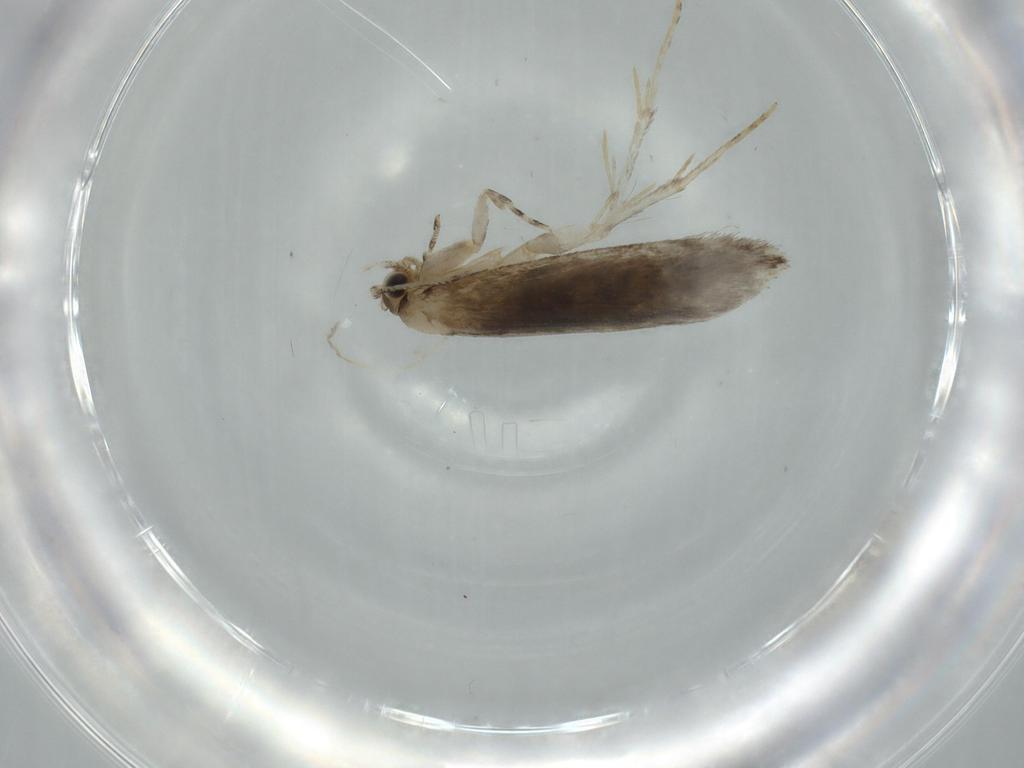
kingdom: Animalia
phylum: Arthropoda
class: Insecta
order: Lepidoptera
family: Tineidae
